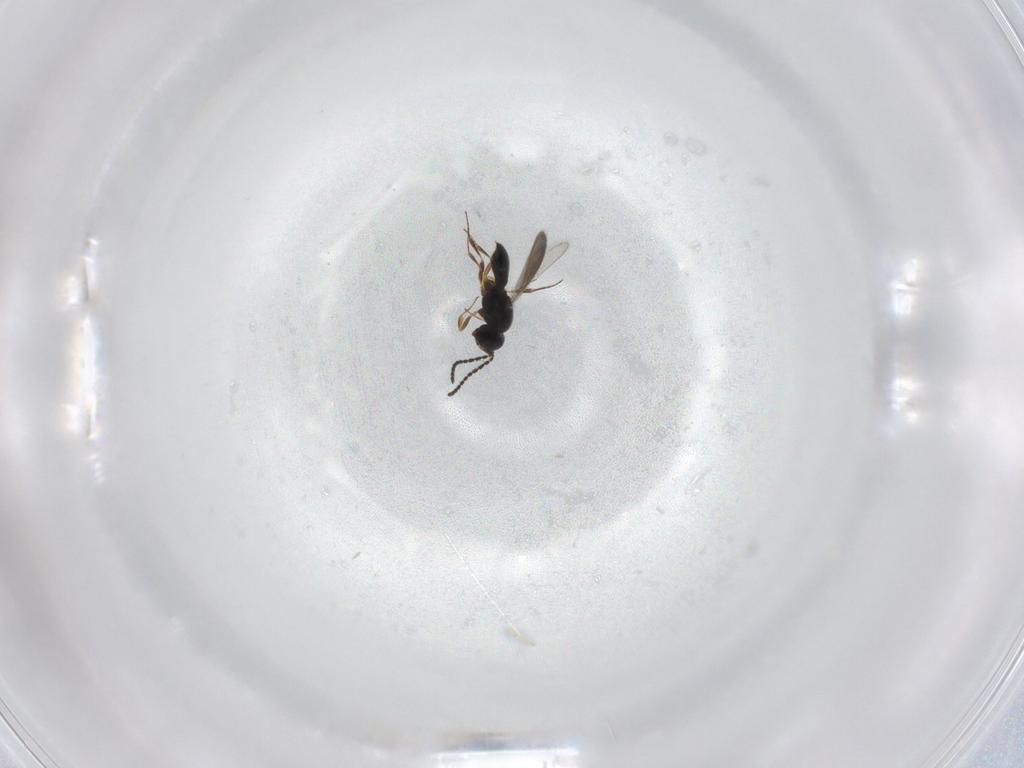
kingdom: Animalia
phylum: Arthropoda
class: Insecta
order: Hymenoptera
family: Scelionidae
